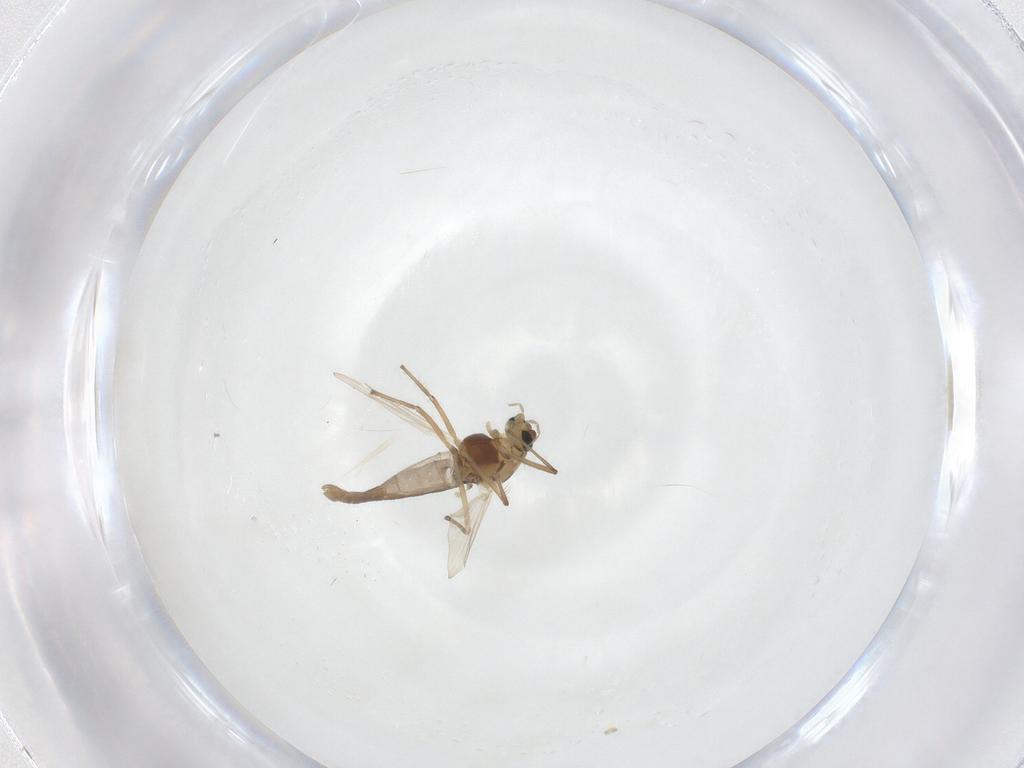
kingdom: Animalia
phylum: Arthropoda
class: Insecta
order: Diptera
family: Chironomidae
